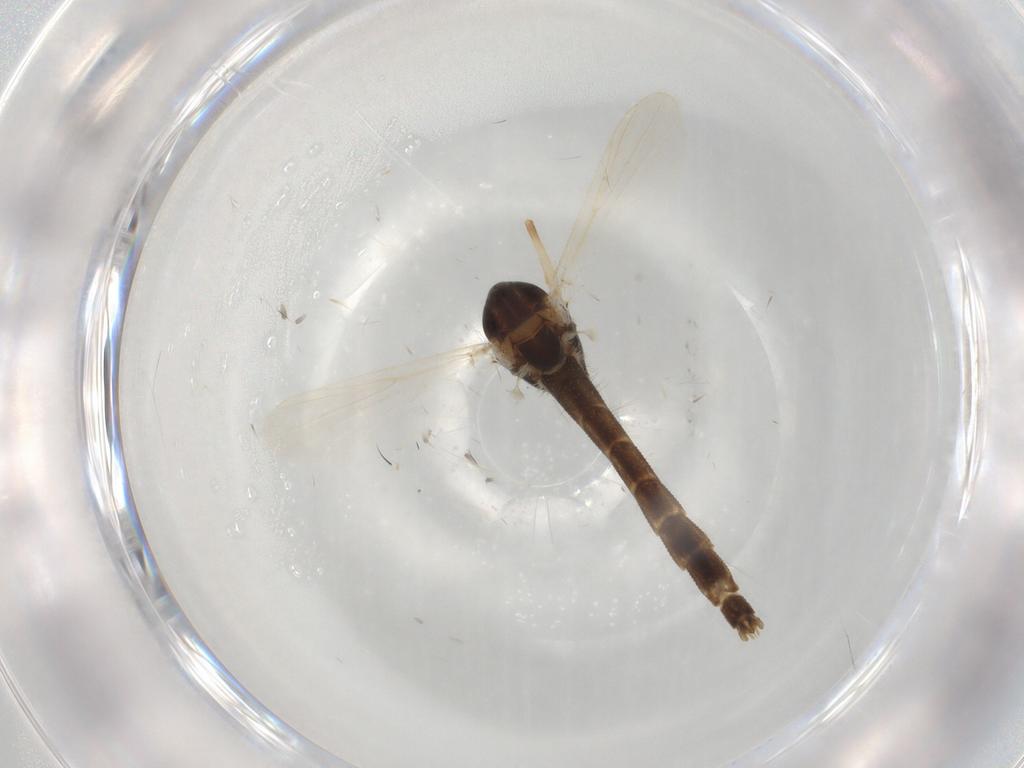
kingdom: Animalia
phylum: Arthropoda
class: Insecta
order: Diptera
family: Chironomidae
